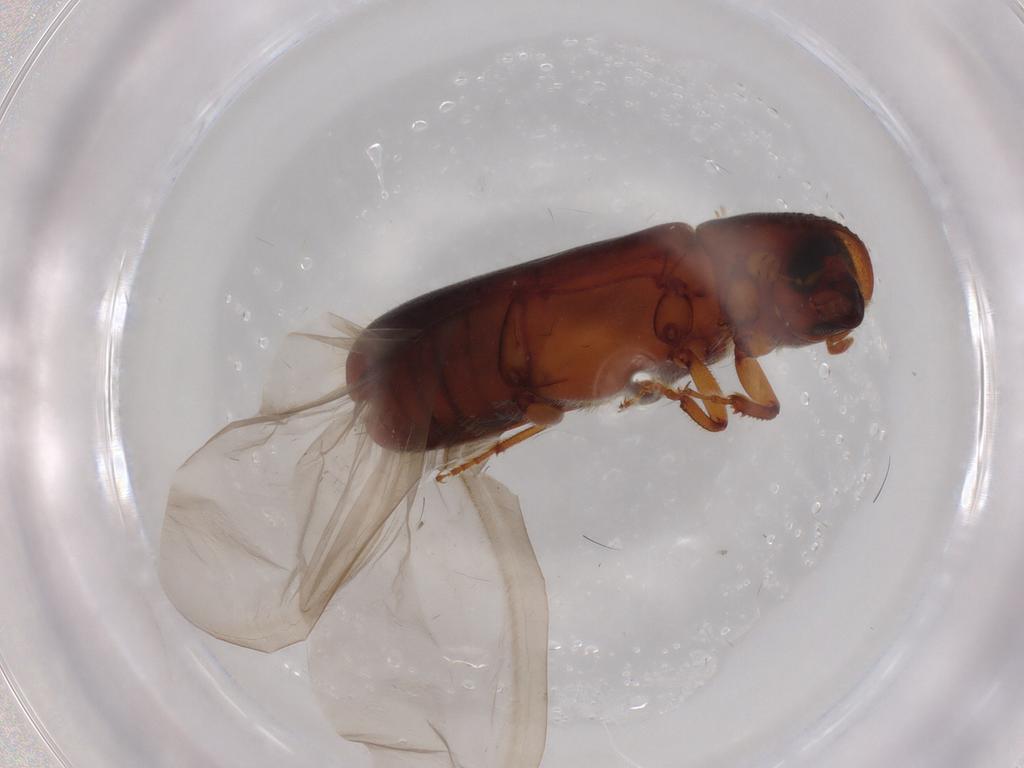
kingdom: Animalia
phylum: Arthropoda
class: Insecta
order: Coleoptera
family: Curculionidae
